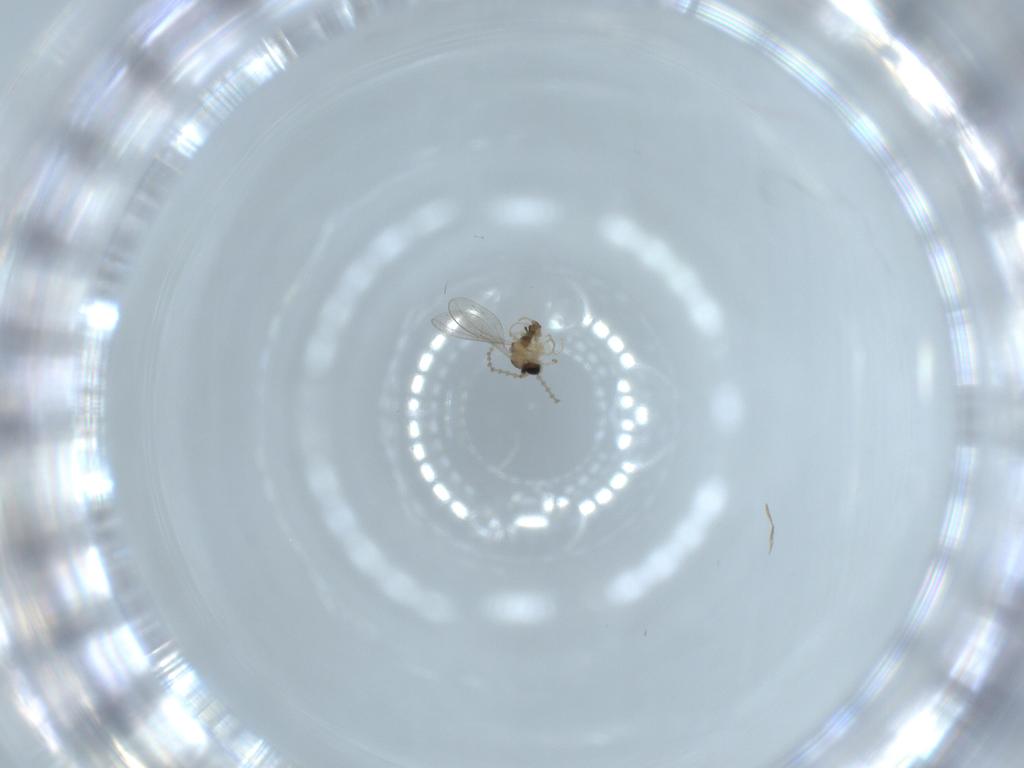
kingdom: Animalia
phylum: Arthropoda
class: Insecta
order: Diptera
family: Cecidomyiidae
